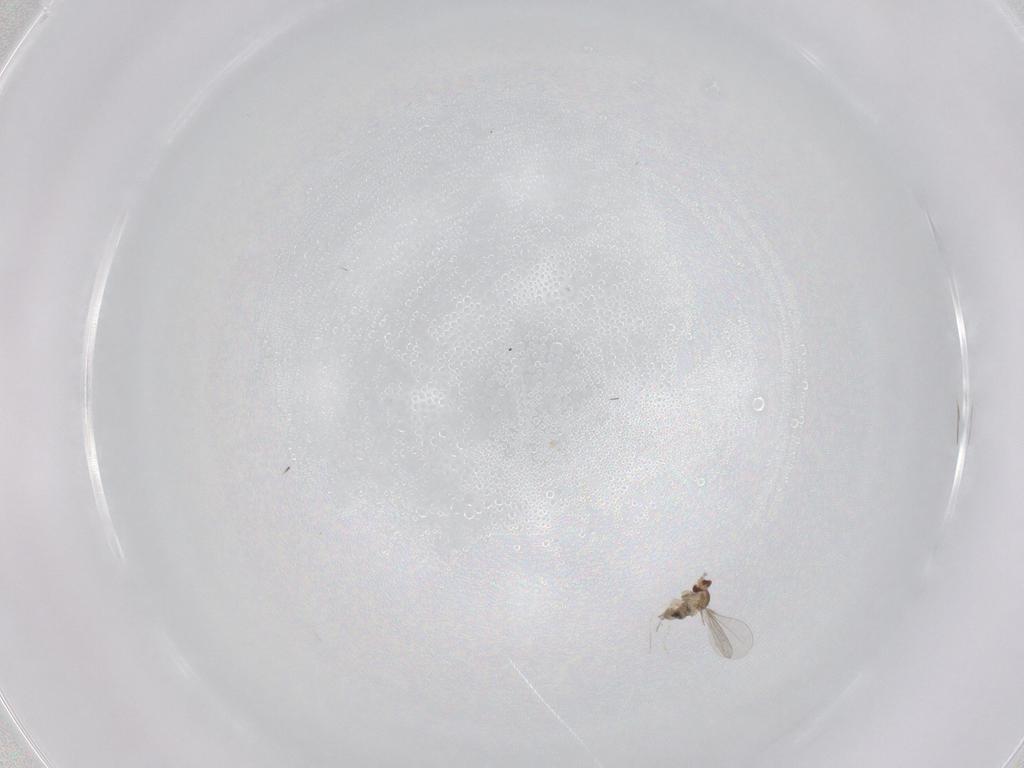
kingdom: Animalia
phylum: Arthropoda
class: Insecta
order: Diptera
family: Cecidomyiidae
